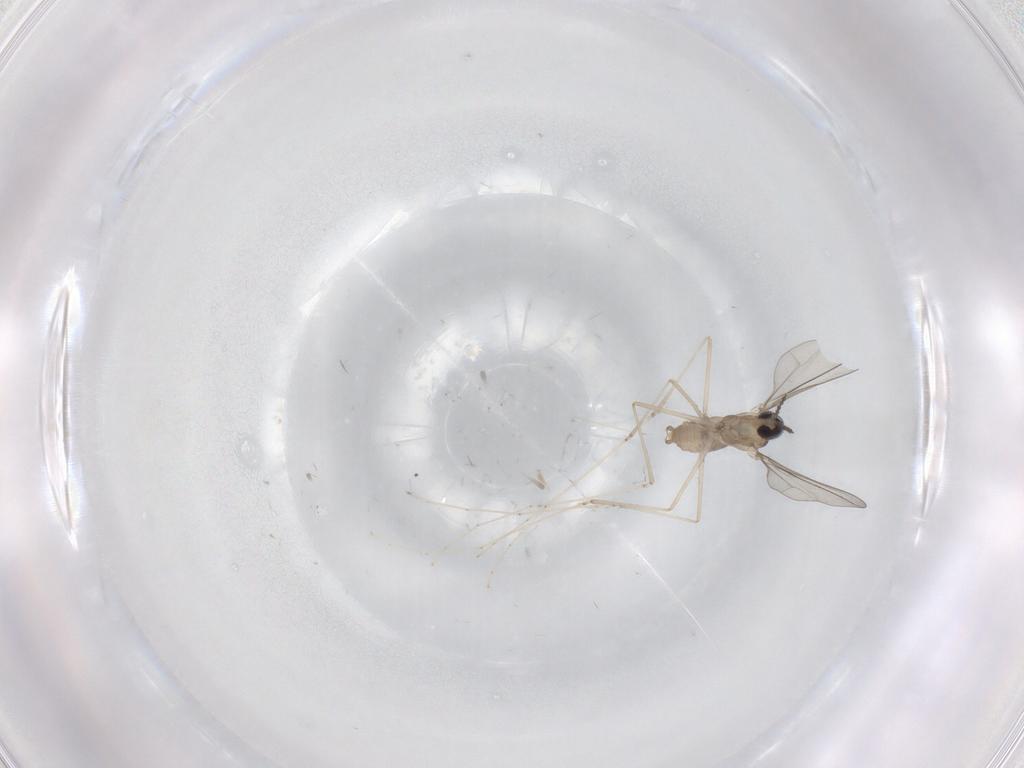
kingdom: Animalia
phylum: Arthropoda
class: Insecta
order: Diptera
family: Cecidomyiidae
